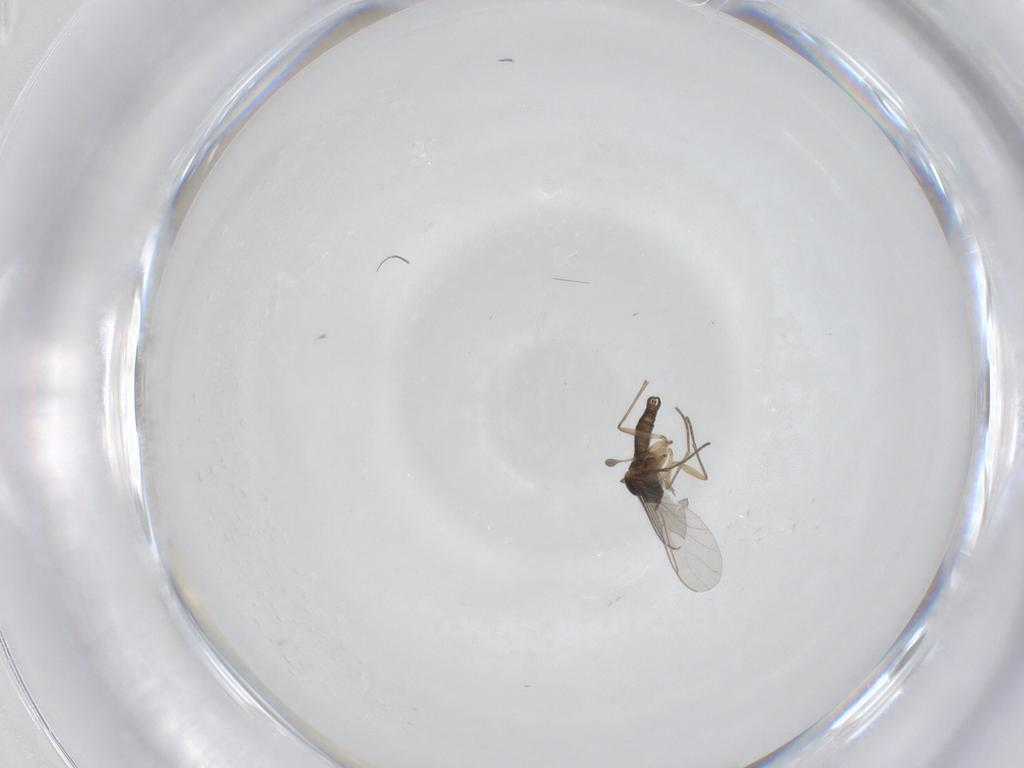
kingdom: Animalia
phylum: Arthropoda
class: Insecta
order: Diptera
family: Sciaridae
